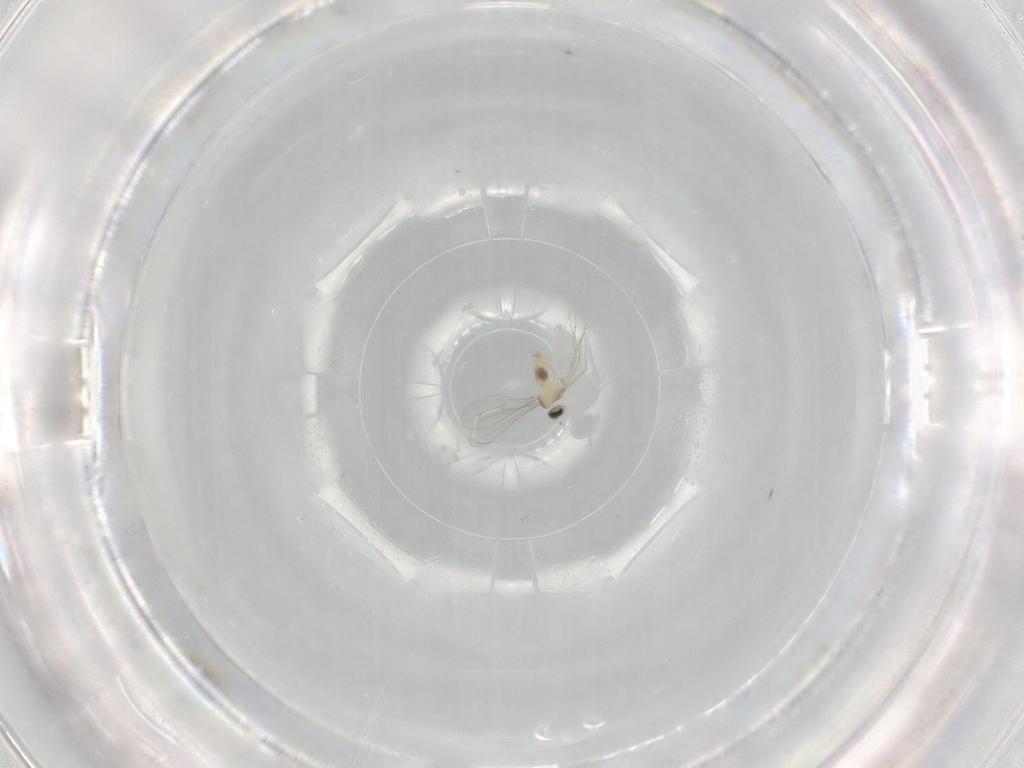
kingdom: Animalia
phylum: Arthropoda
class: Insecta
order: Diptera
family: Cecidomyiidae
